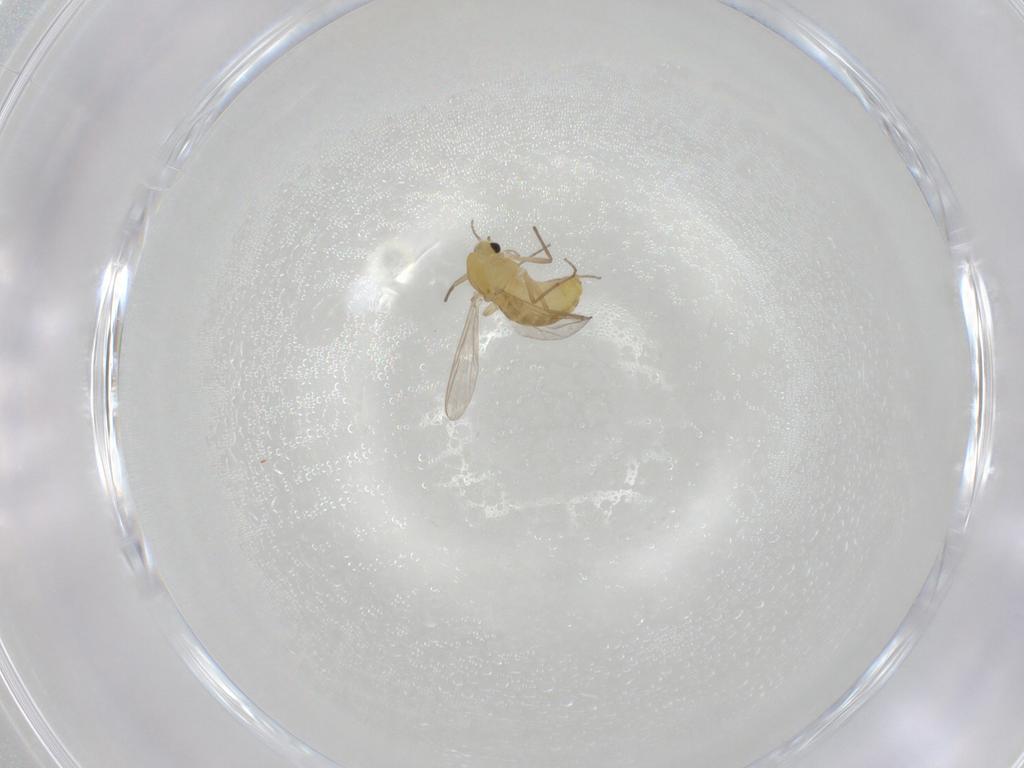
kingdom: Animalia
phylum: Arthropoda
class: Insecta
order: Diptera
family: Chironomidae
